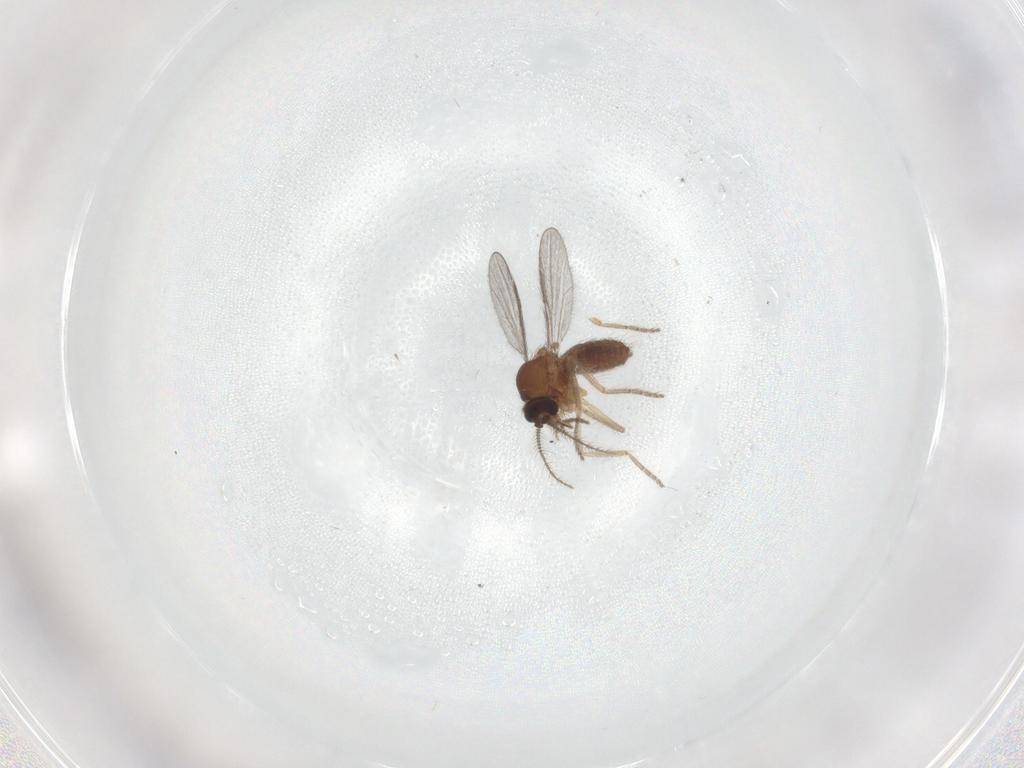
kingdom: Animalia
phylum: Arthropoda
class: Insecta
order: Diptera
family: Ceratopogonidae
